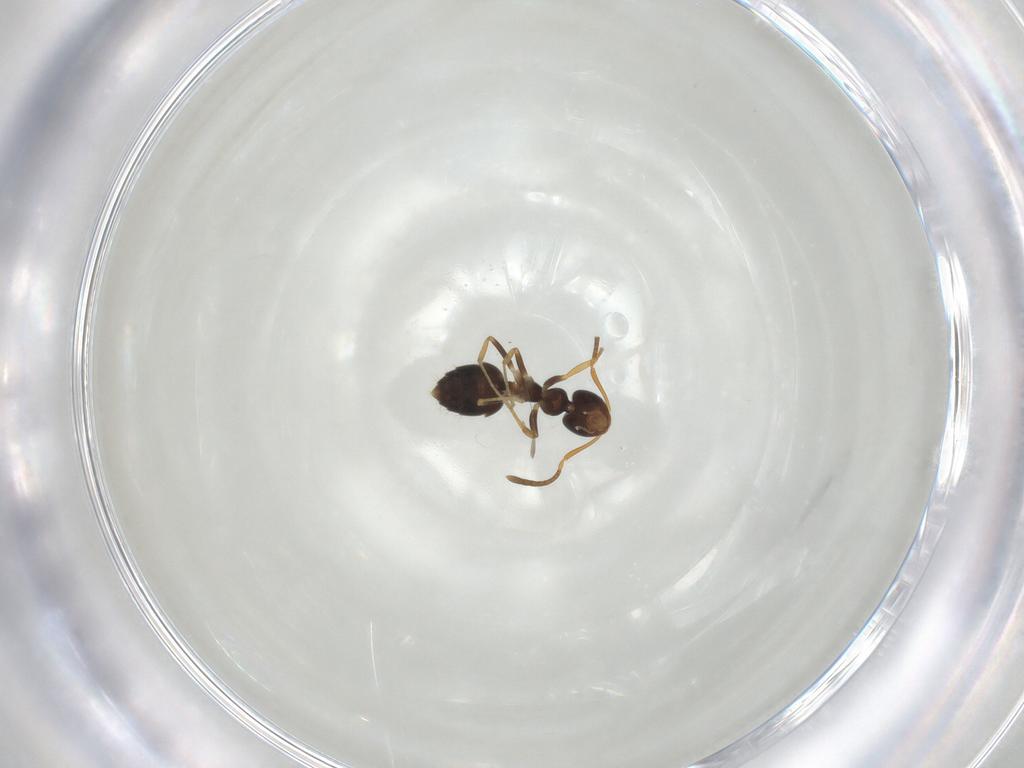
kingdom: Animalia
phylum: Arthropoda
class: Insecta
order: Hymenoptera
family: Formicidae
